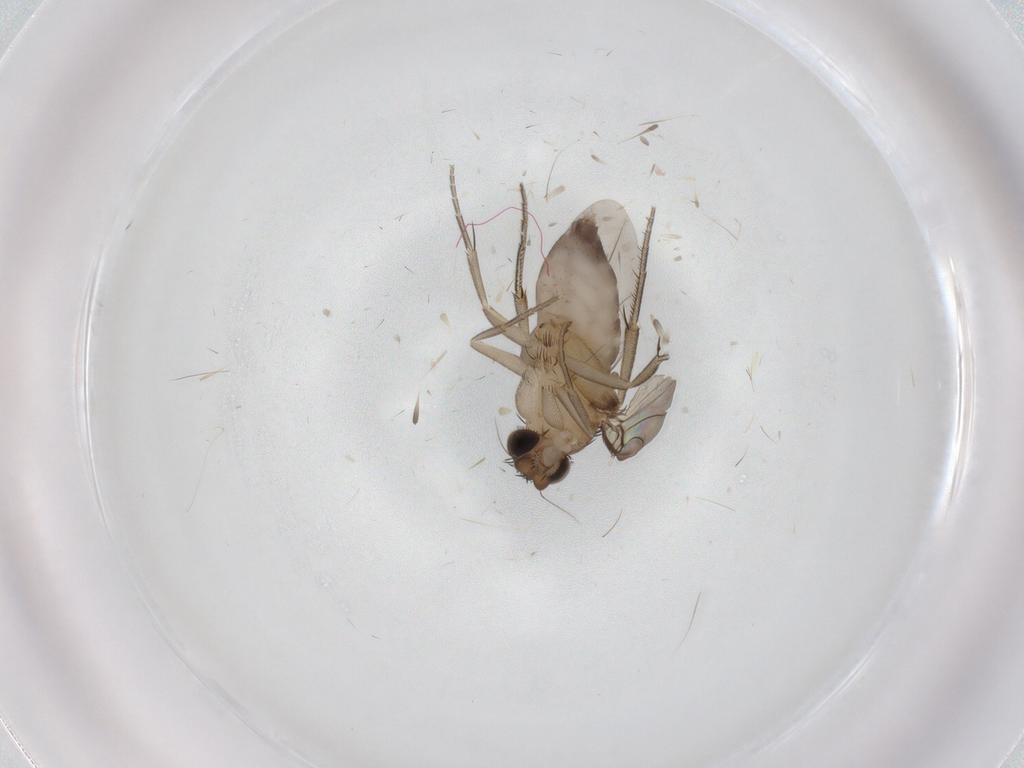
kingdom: Animalia
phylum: Arthropoda
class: Insecta
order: Diptera
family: Phoridae
